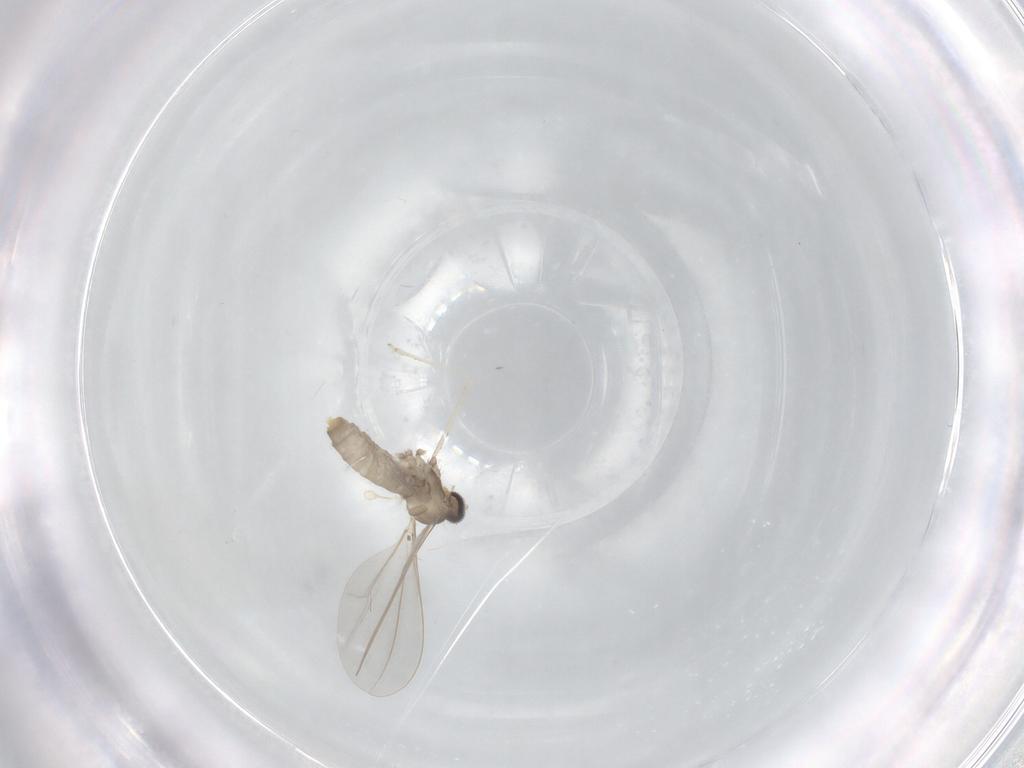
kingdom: Animalia
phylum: Arthropoda
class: Insecta
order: Diptera
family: Cecidomyiidae
